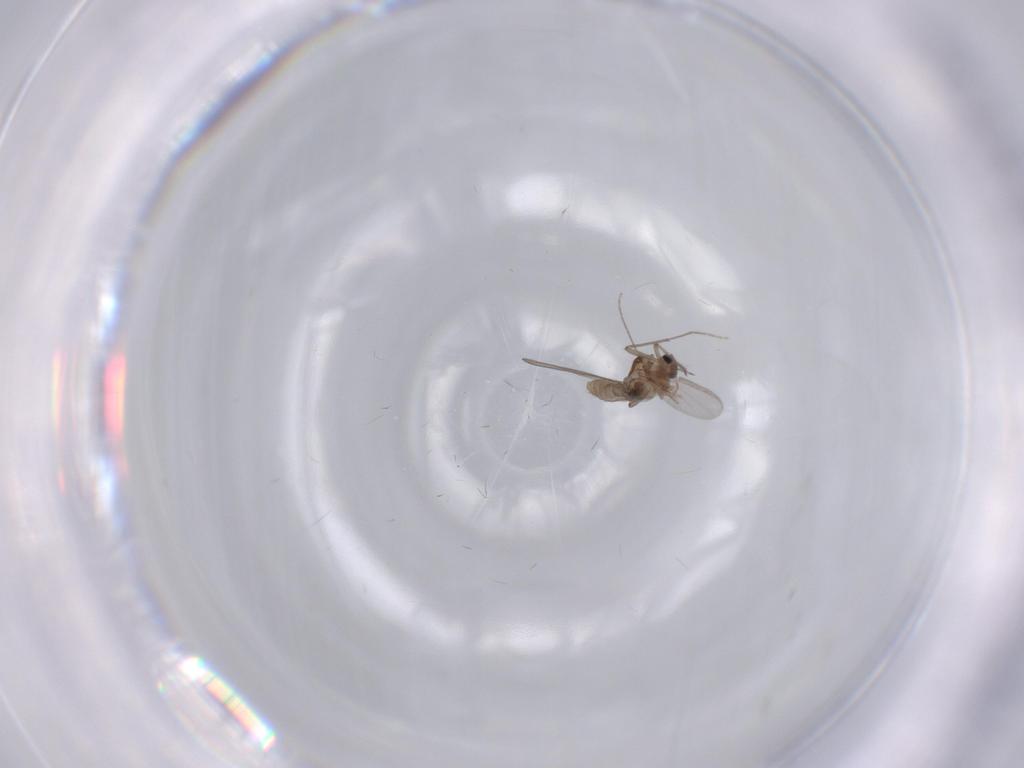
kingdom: Animalia
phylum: Arthropoda
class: Insecta
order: Diptera
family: Chironomidae
